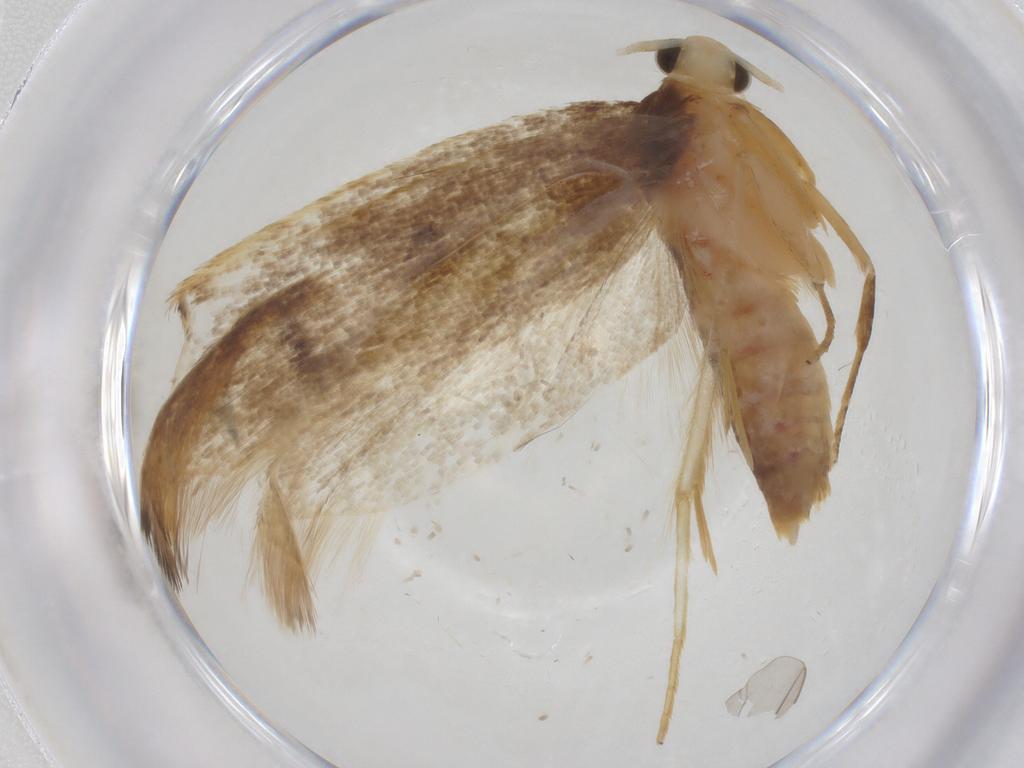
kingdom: Animalia
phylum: Arthropoda
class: Insecta
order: Lepidoptera
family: Lecithoceridae
